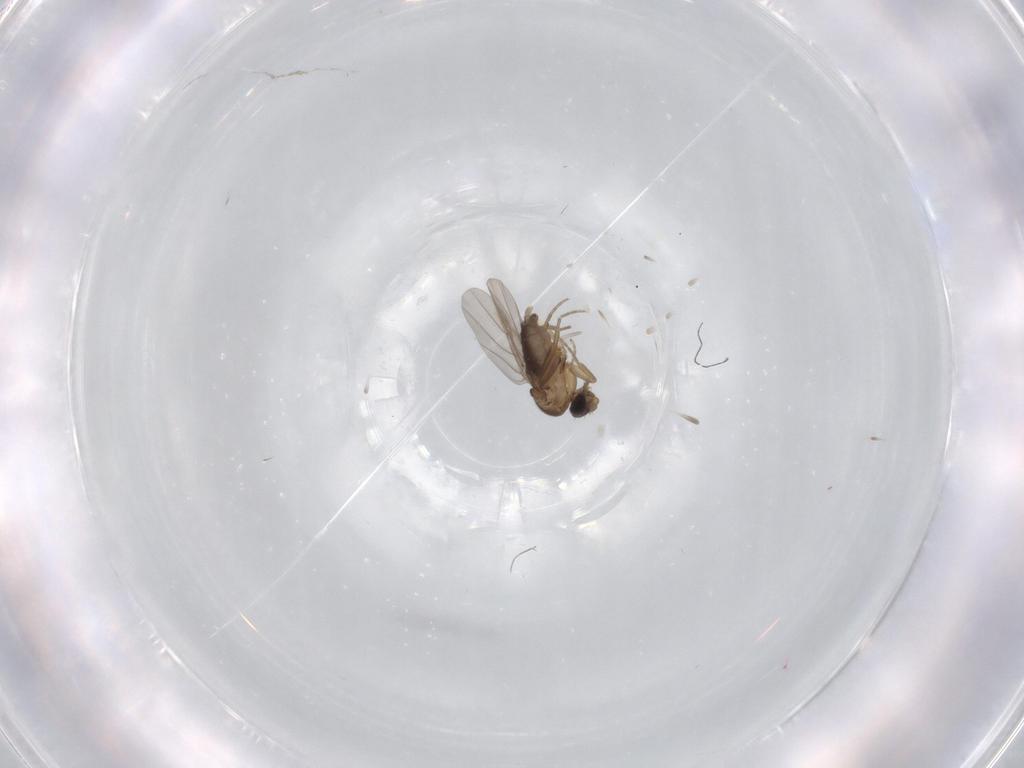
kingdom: Animalia
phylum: Arthropoda
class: Insecta
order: Diptera
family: Phoridae
